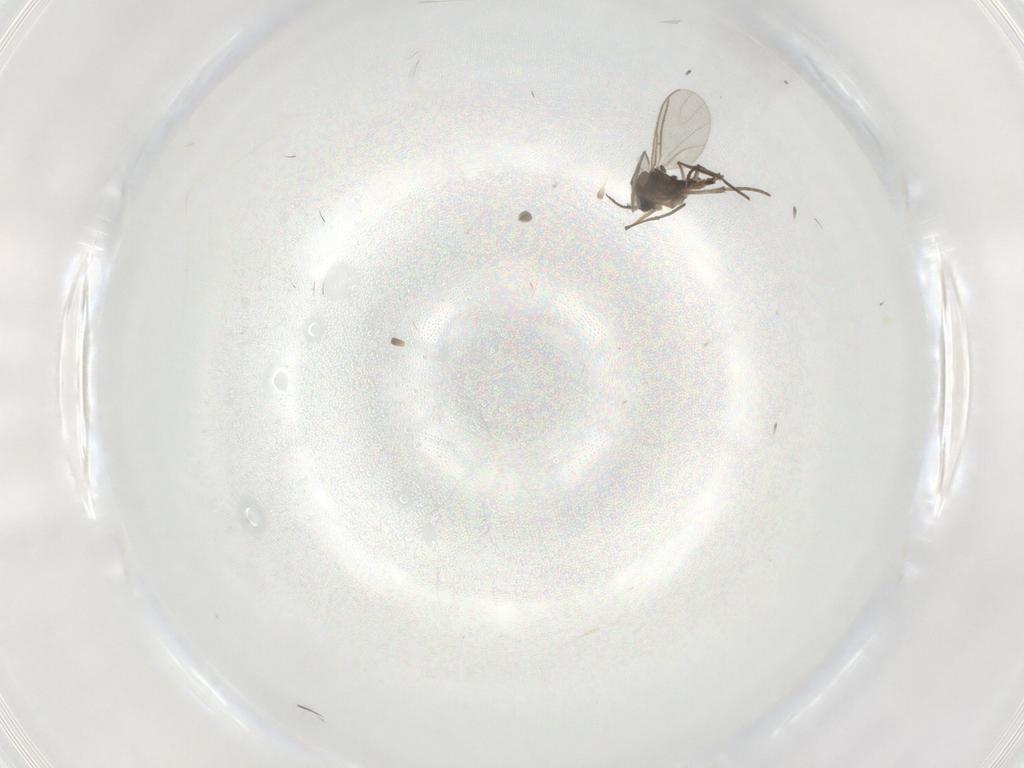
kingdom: Animalia
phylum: Arthropoda
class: Insecta
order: Diptera
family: Chironomidae
